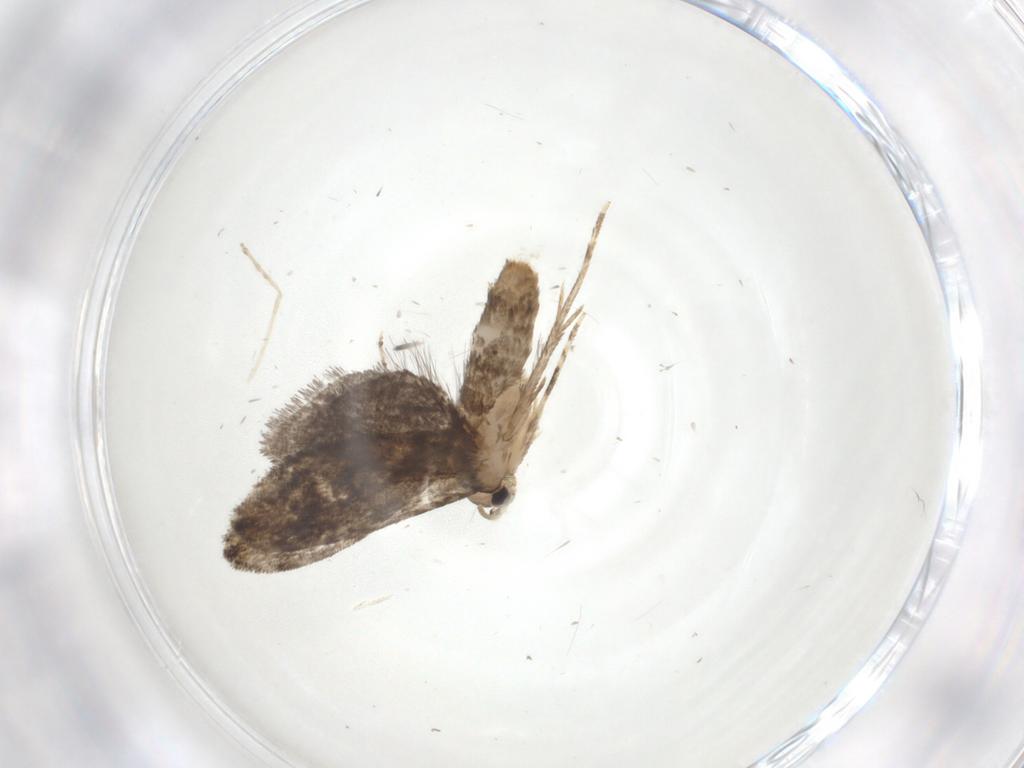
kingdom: Animalia
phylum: Arthropoda
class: Insecta
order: Lepidoptera
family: Tineidae
